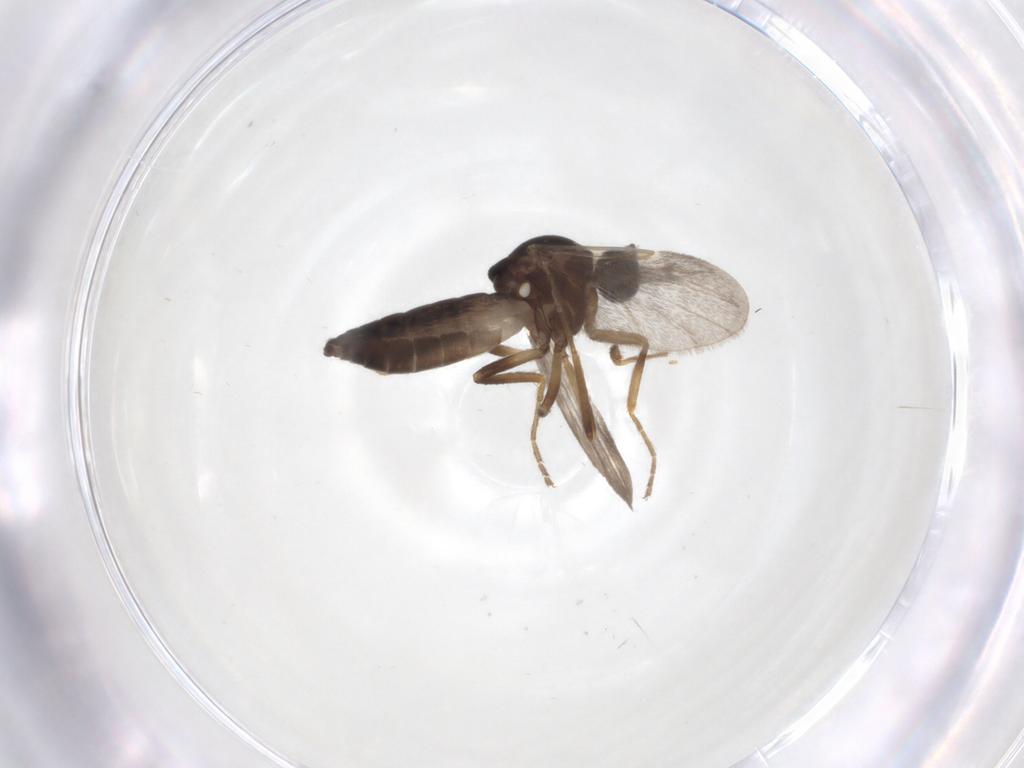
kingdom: Animalia
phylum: Arthropoda
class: Insecta
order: Diptera
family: Ceratopogonidae
